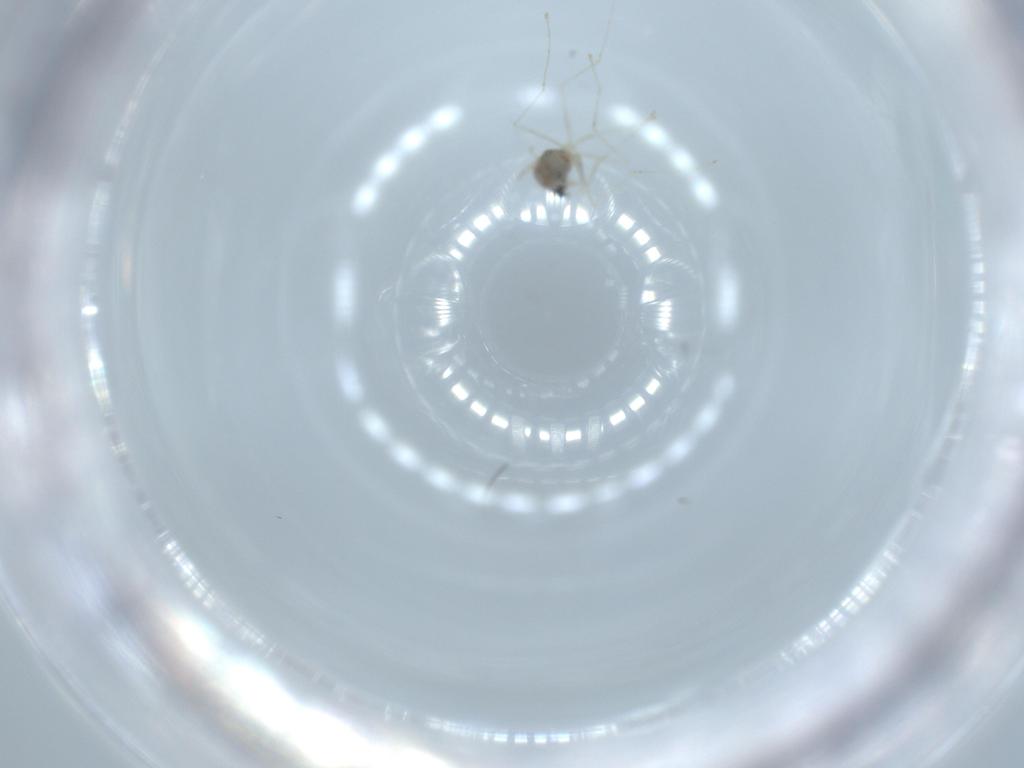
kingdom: Animalia
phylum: Arthropoda
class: Insecta
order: Diptera
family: Cecidomyiidae
